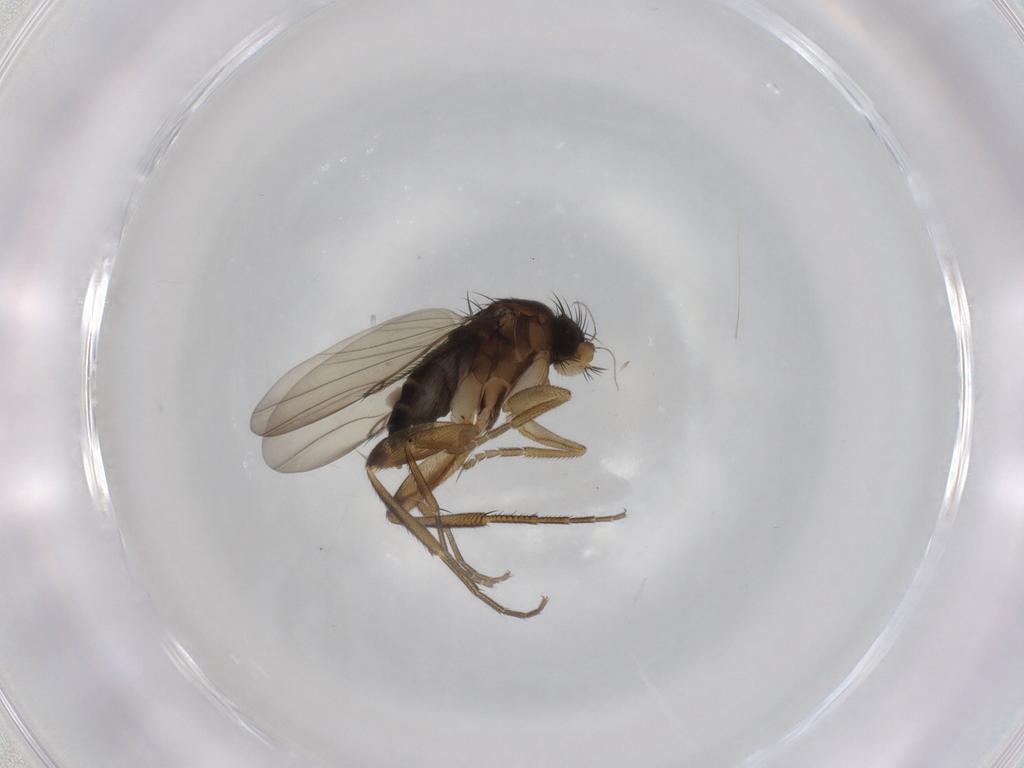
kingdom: Animalia
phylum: Arthropoda
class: Insecta
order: Diptera
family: Phoridae
